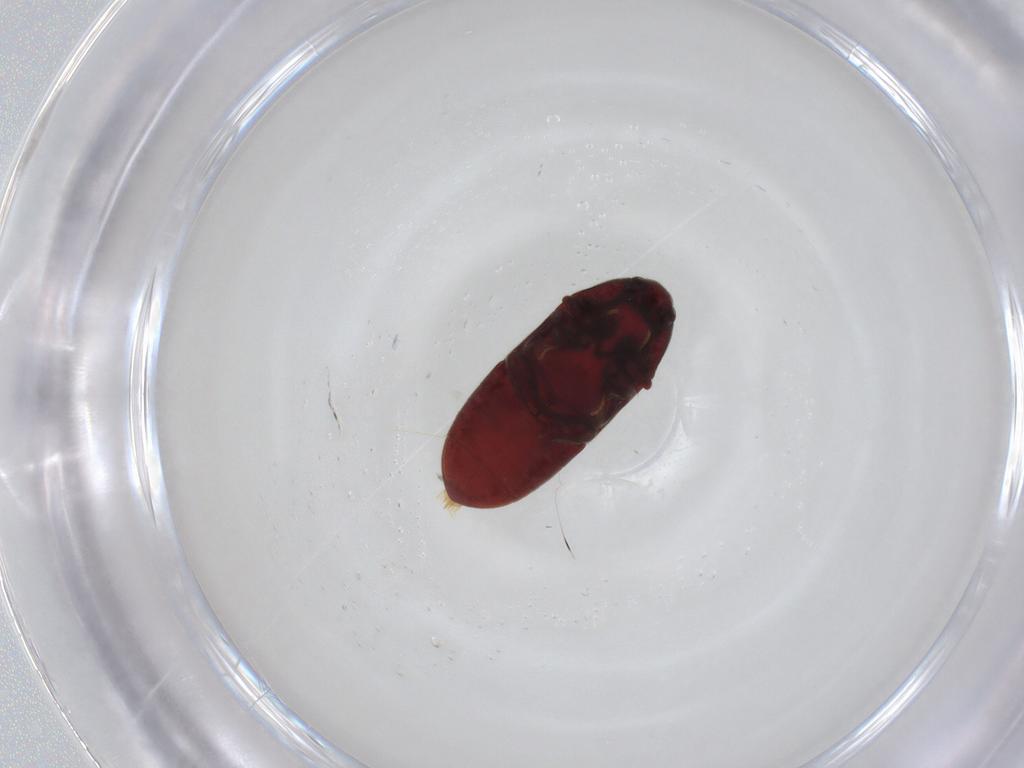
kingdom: Animalia
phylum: Arthropoda
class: Insecta
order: Coleoptera
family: Throscidae
